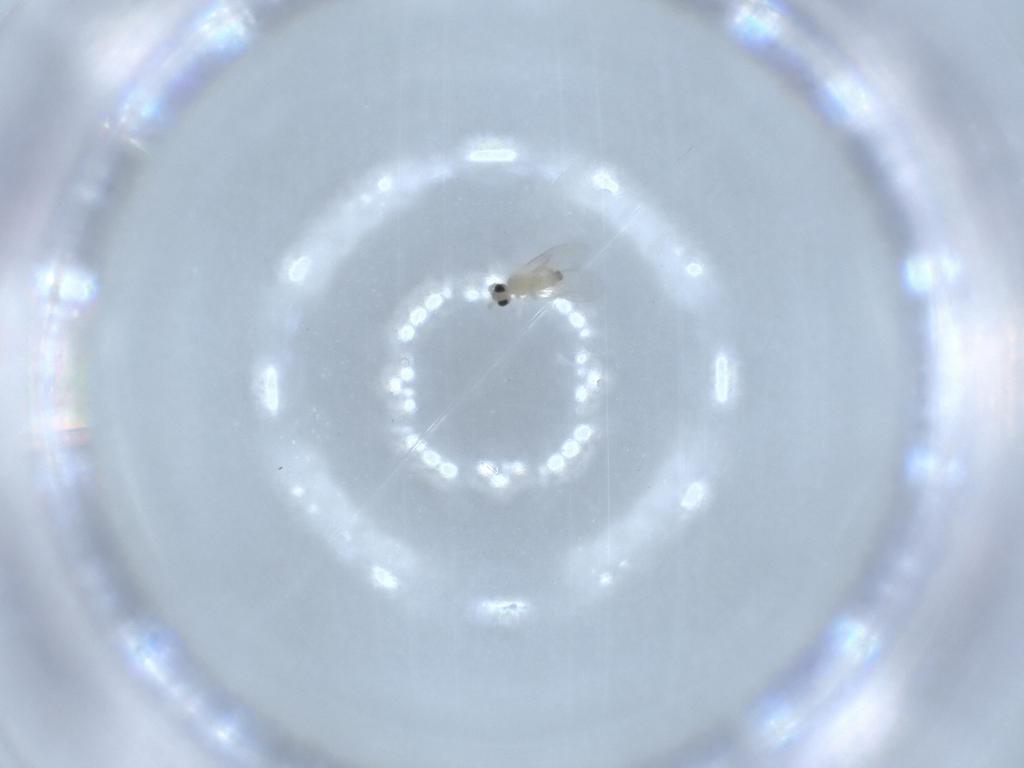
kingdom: Animalia
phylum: Arthropoda
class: Insecta
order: Diptera
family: Cecidomyiidae
